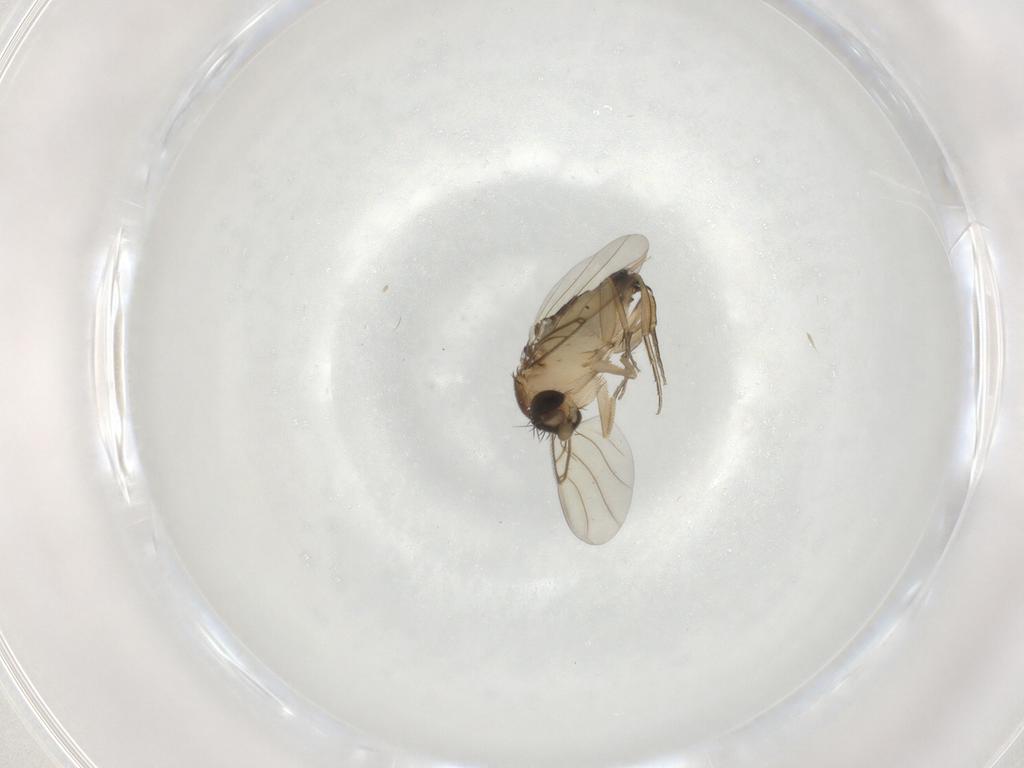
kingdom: Animalia
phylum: Arthropoda
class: Insecta
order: Diptera
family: Phoridae
